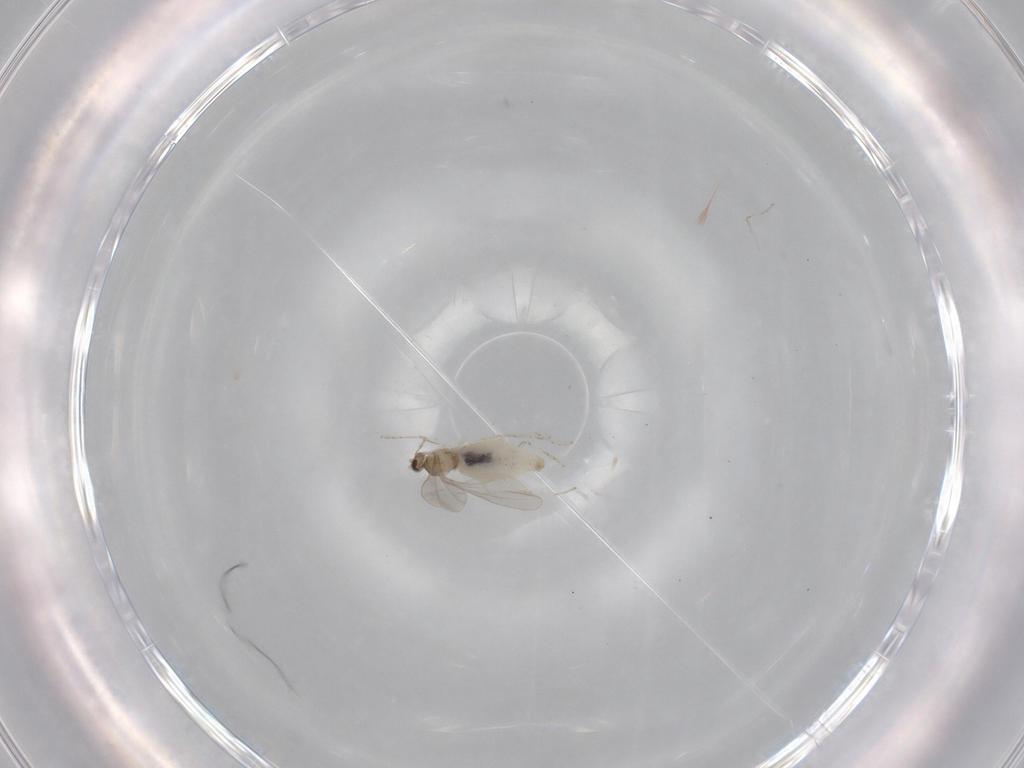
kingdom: Animalia
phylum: Arthropoda
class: Insecta
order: Diptera
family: Cecidomyiidae
